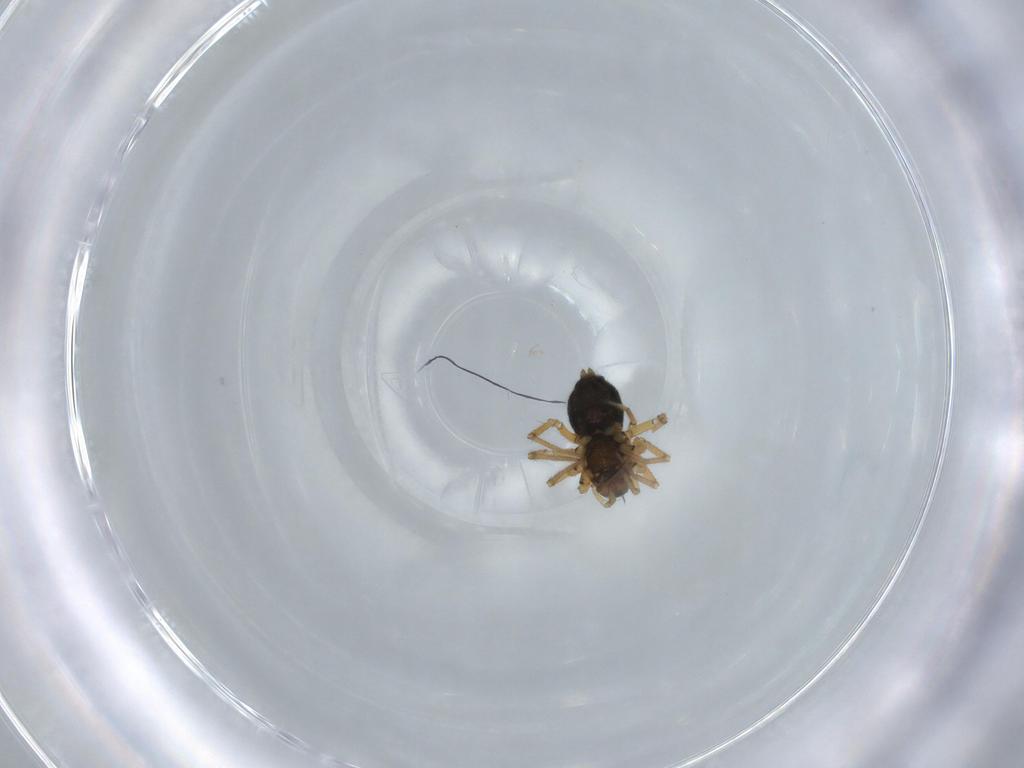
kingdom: Animalia
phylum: Arthropoda
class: Arachnida
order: Araneae
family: Linyphiidae
